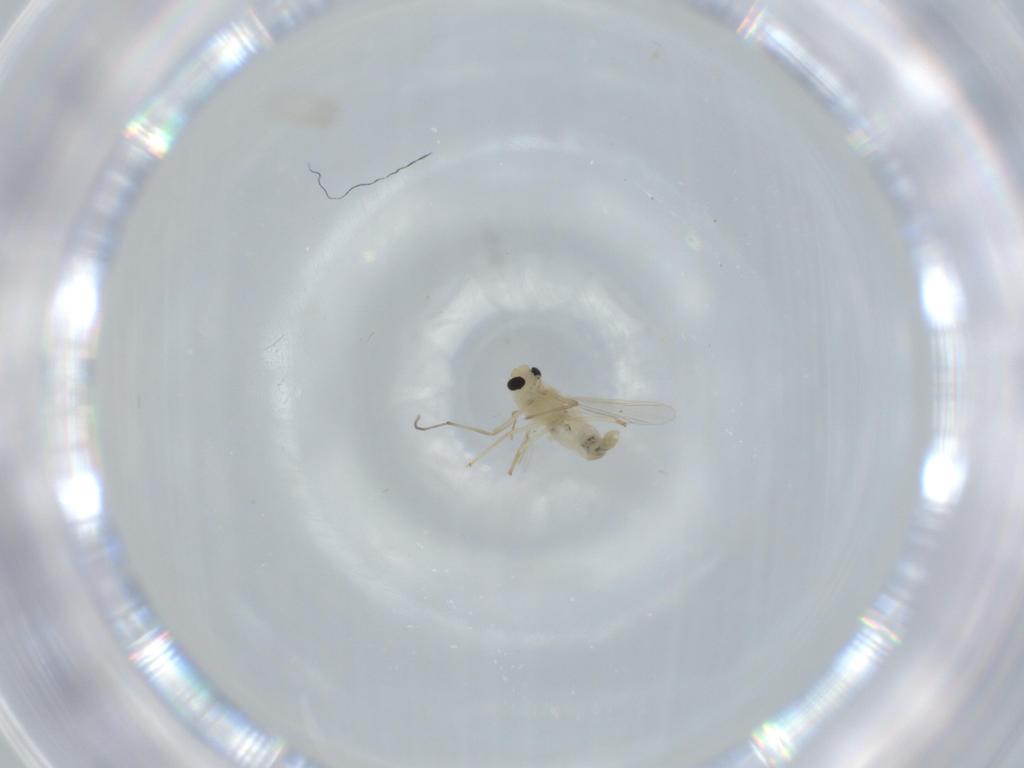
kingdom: Animalia
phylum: Arthropoda
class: Insecta
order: Diptera
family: Chironomidae
